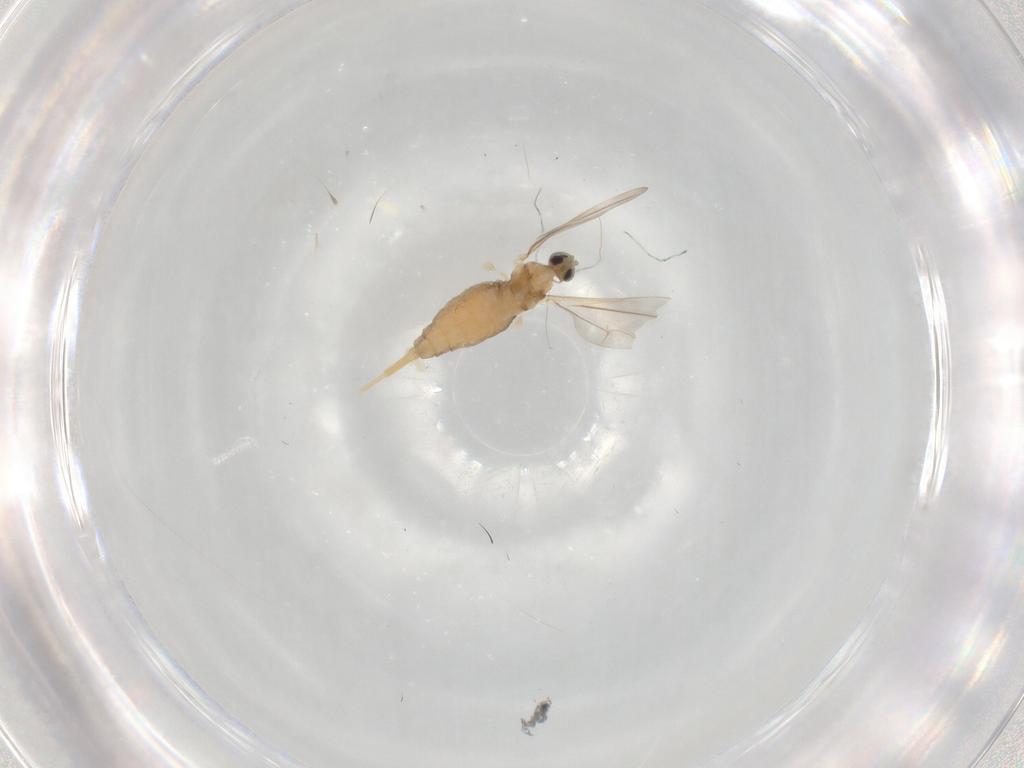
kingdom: Animalia
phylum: Arthropoda
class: Insecta
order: Diptera
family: Cecidomyiidae
